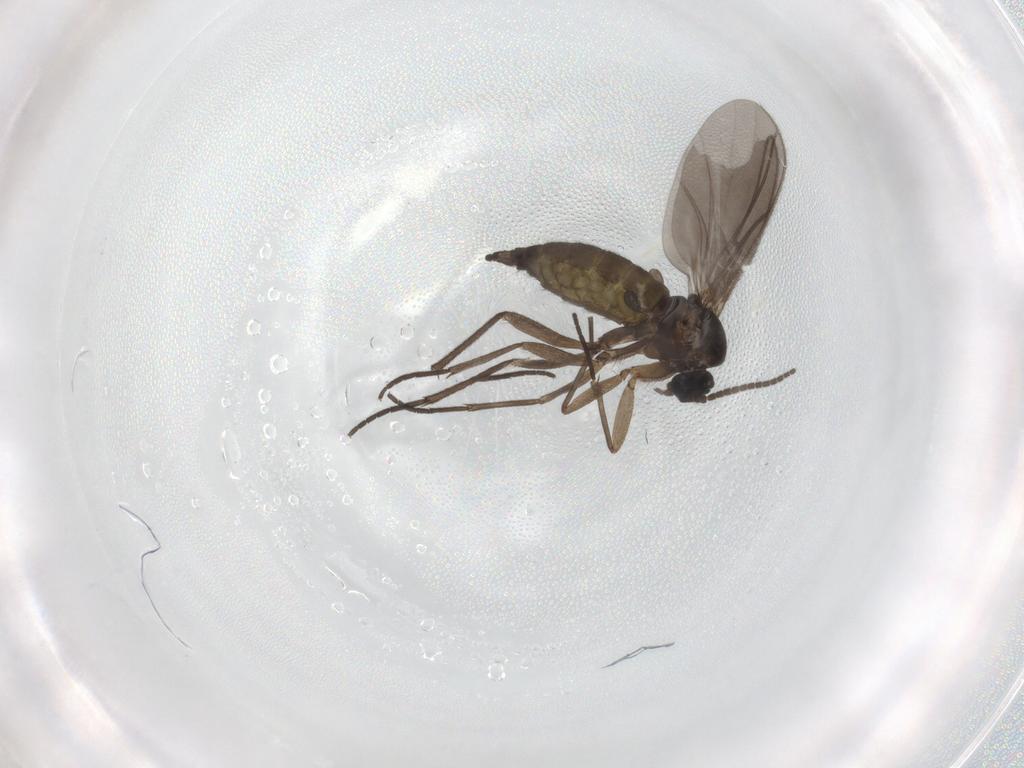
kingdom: Animalia
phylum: Arthropoda
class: Insecta
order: Diptera
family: Sciaridae
